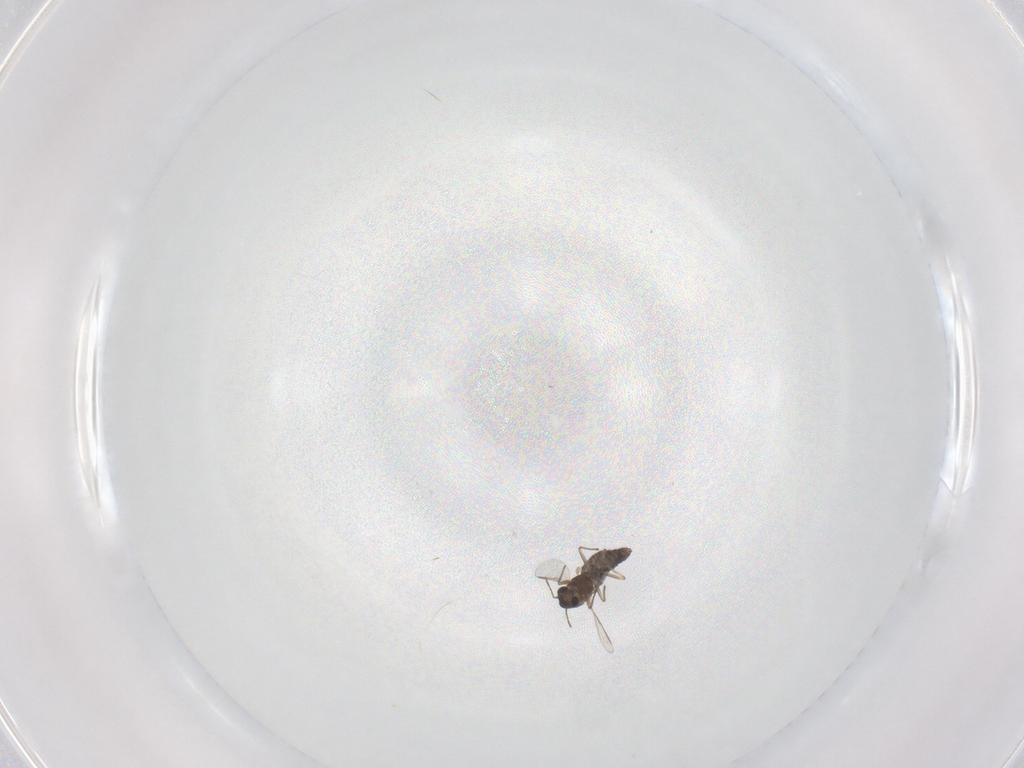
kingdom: Animalia
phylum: Arthropoda
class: Insecta
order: Diptera
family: Chironomidae
